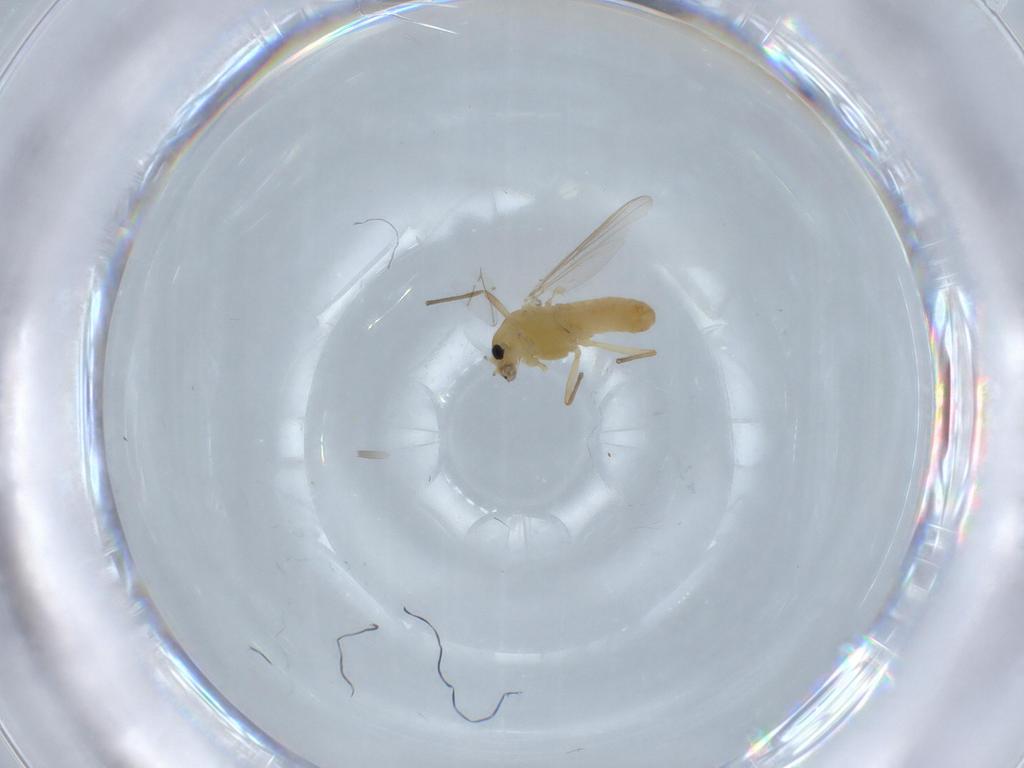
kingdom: Animalia
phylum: Arthropoda
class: Insecta
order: Diptera
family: Chironomidae
